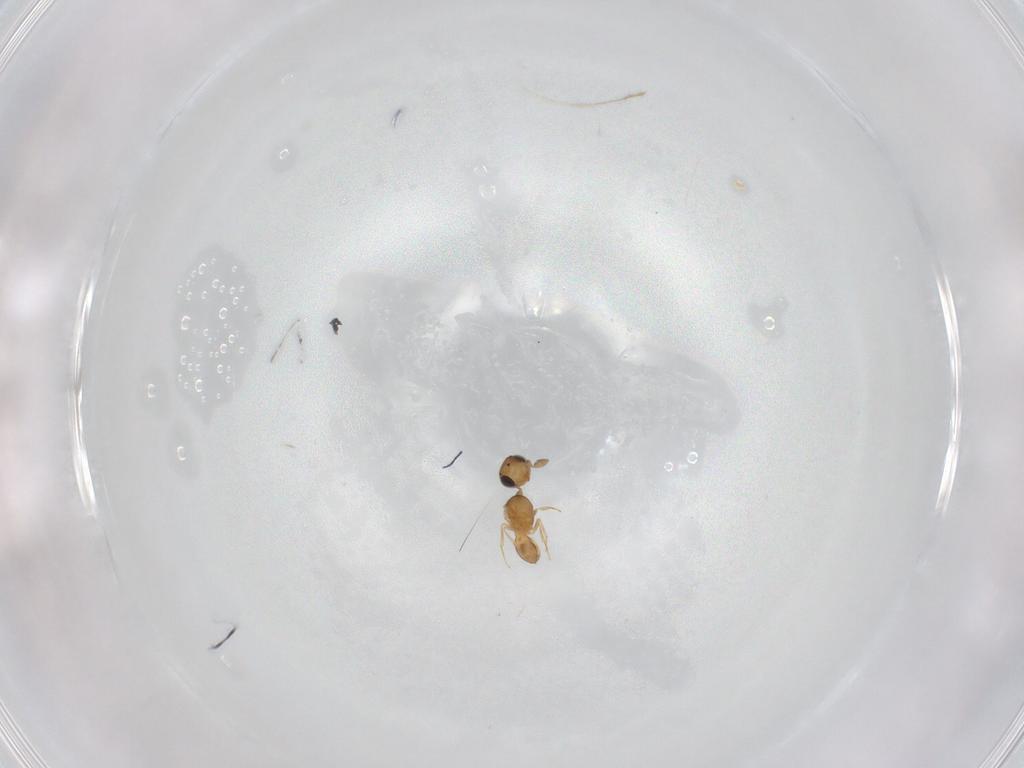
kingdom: Animalia
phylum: Arthropoda
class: Insecta
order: Hymenoptera
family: Scelionidae
